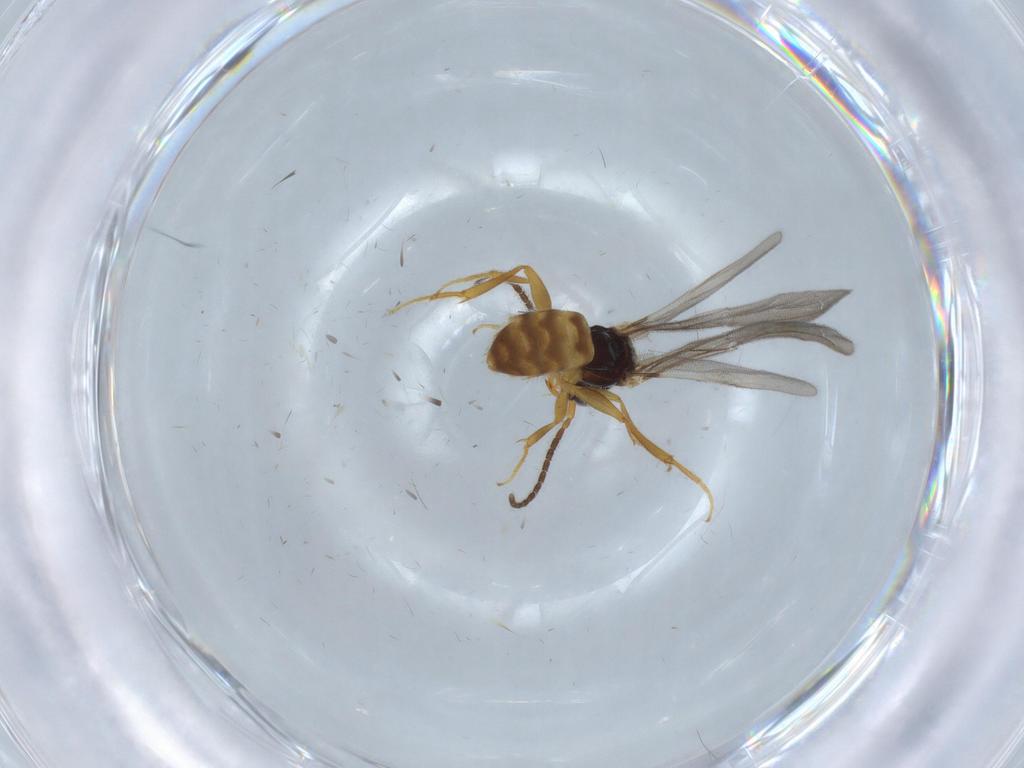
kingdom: Animalia
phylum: Arthropoda
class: Insecta
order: Hymenoptera
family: Bethylidae
